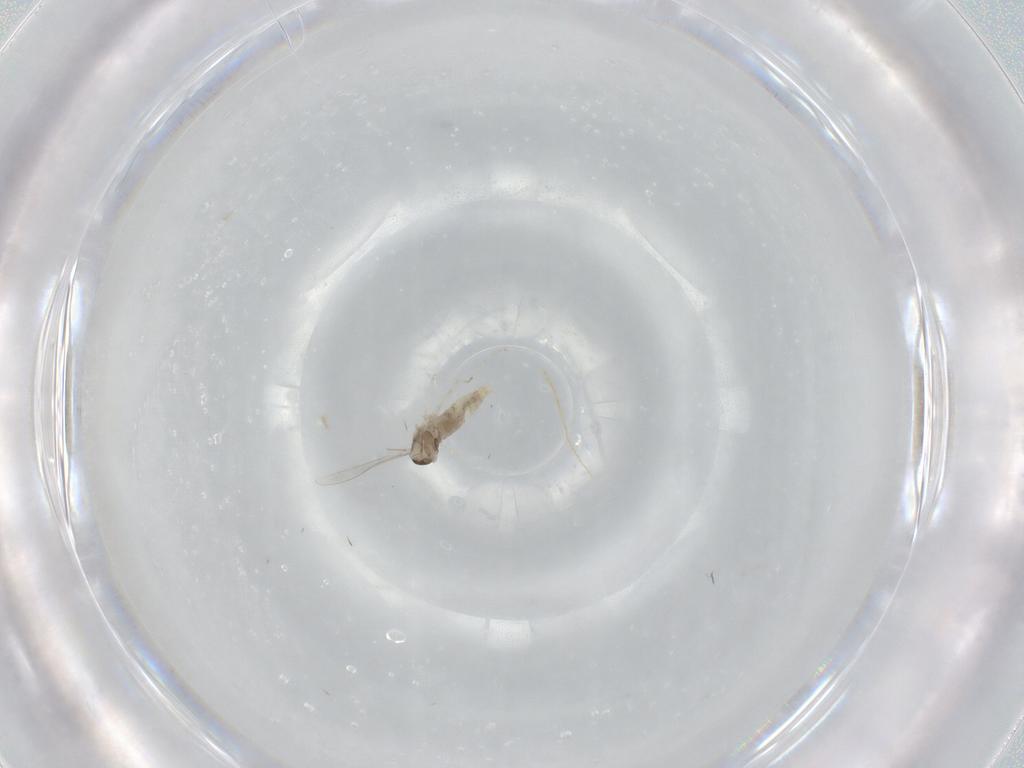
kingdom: Animalia
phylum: Arthropoda
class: Insecta
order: Diptera
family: Cecidomyiidae
